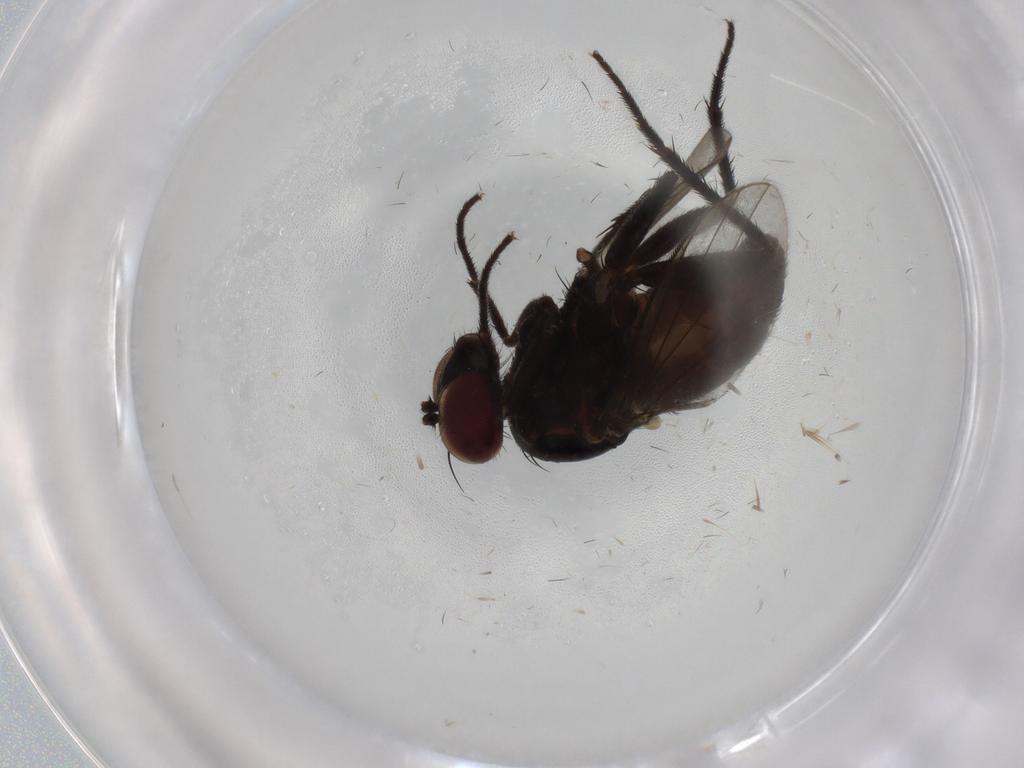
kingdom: Animalia
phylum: Arthropoda
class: Insecta
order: Diptera
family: Dolichopodidae
